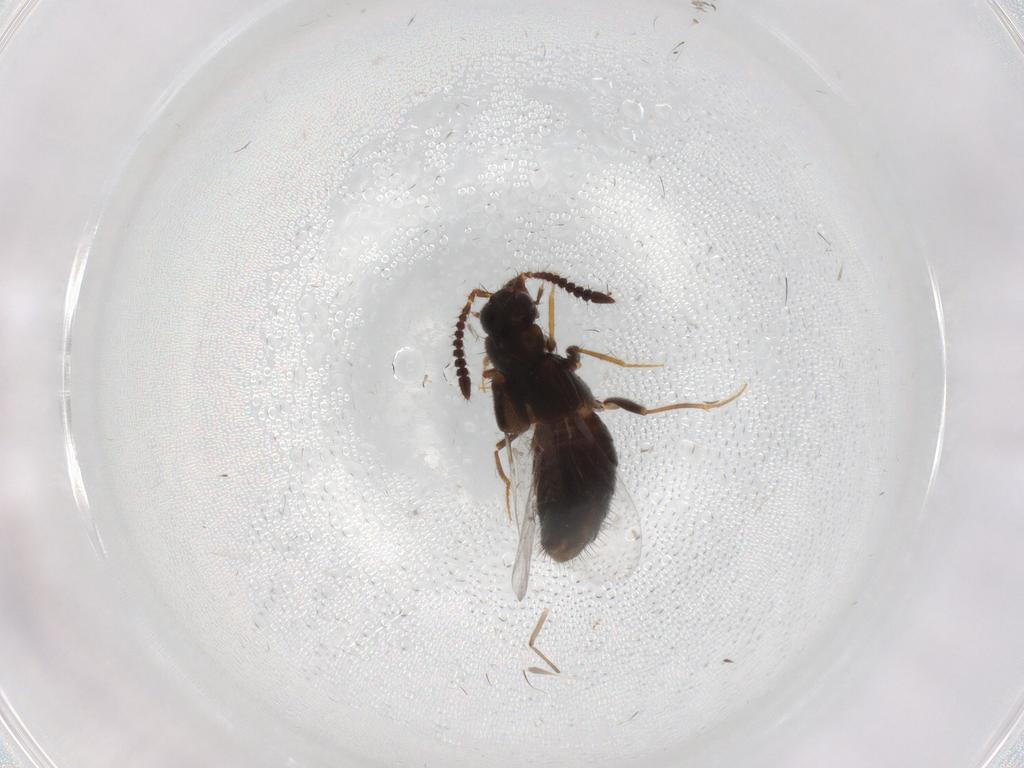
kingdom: Animalia
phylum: Arthropoda
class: Insecta
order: Coleoptera
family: Staphylinidae
